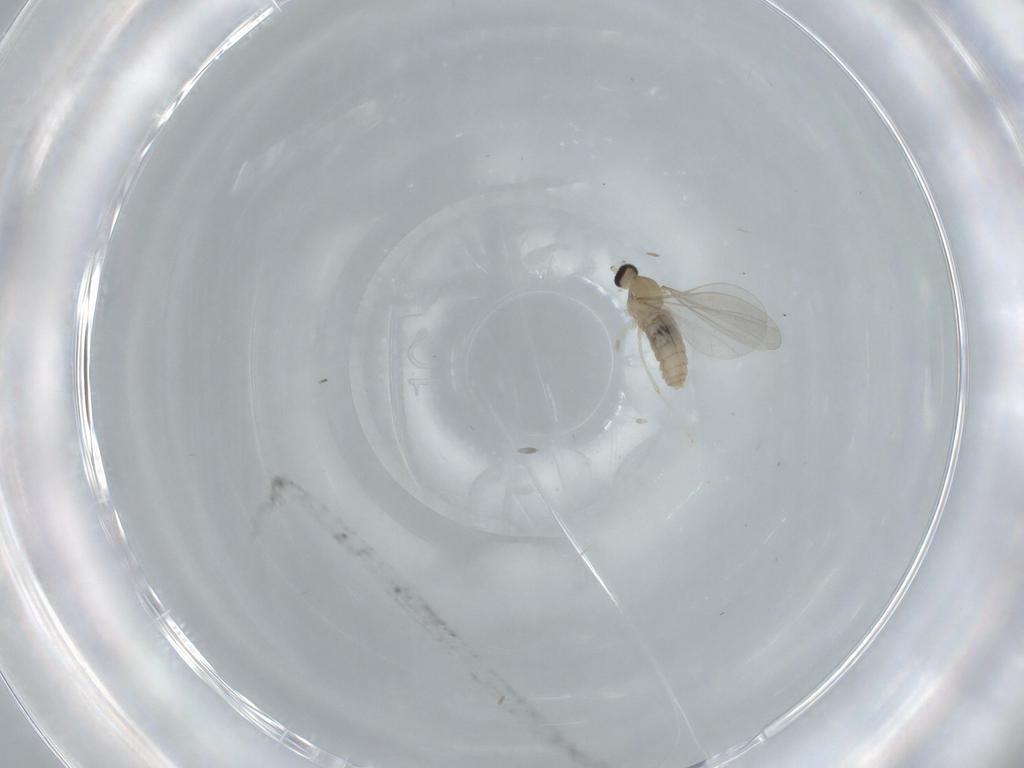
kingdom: Animalia
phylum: Arthropoda
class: Insecta
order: Diptera
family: Cecidomyiidae
